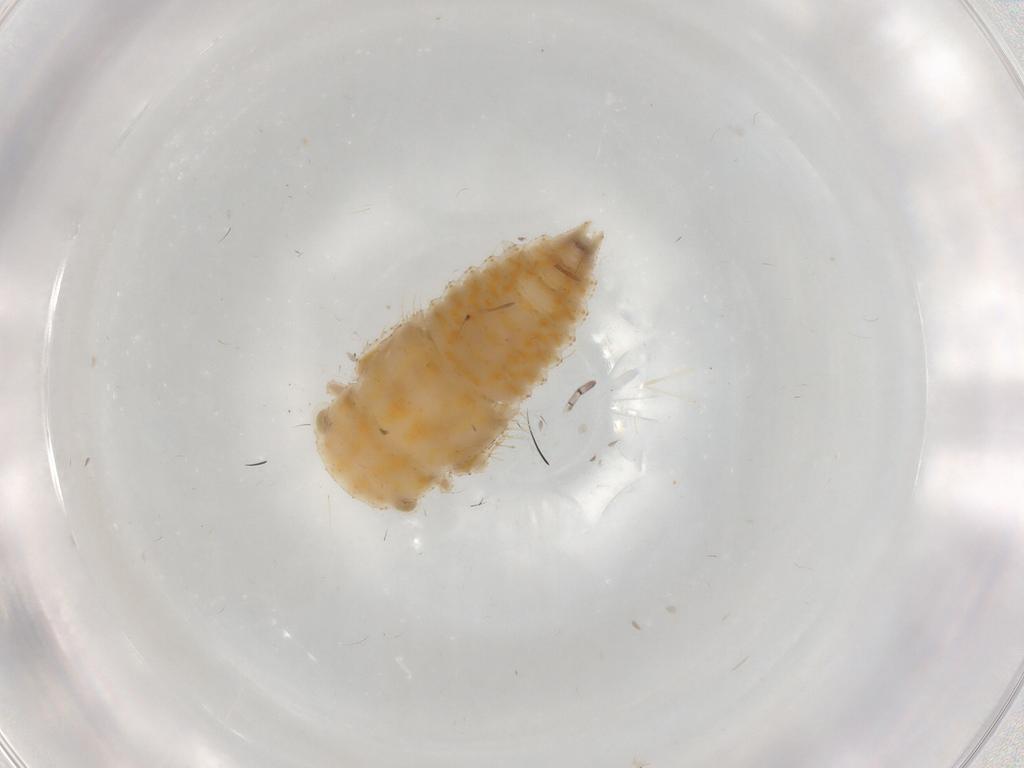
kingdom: Animalia
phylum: Arthropoda
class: Insecta
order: Hemiptera
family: Cicadellidae
